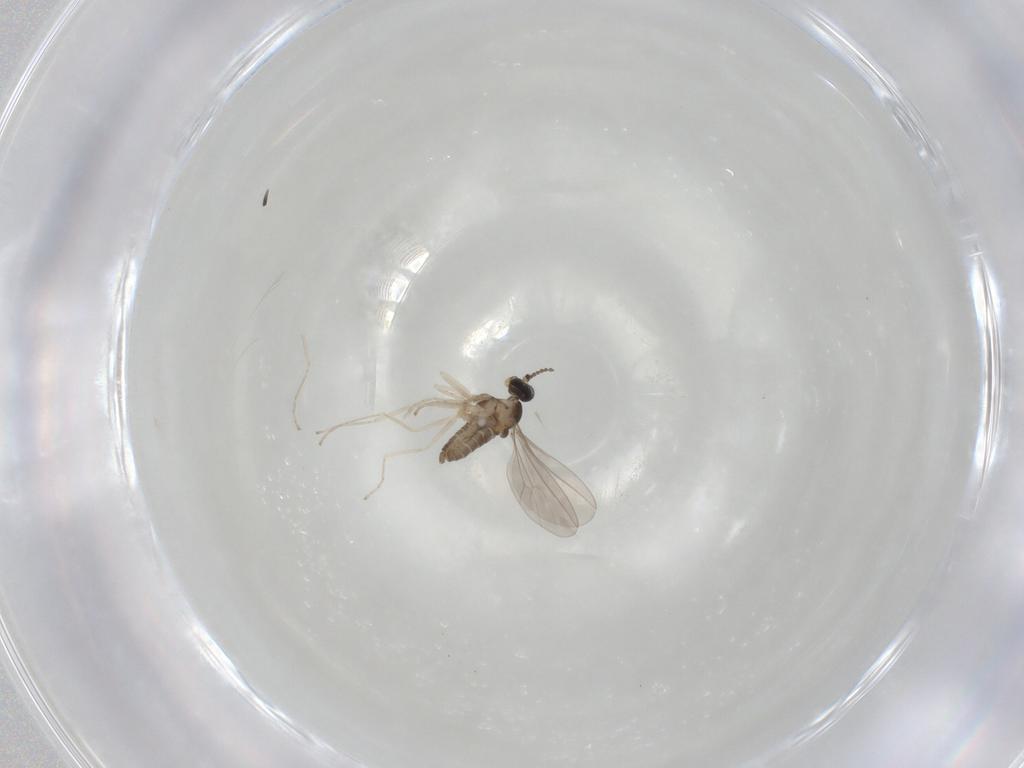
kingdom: Animalia
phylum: Arthropoda
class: Insecta
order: Diptera
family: Cecidomyiidae
